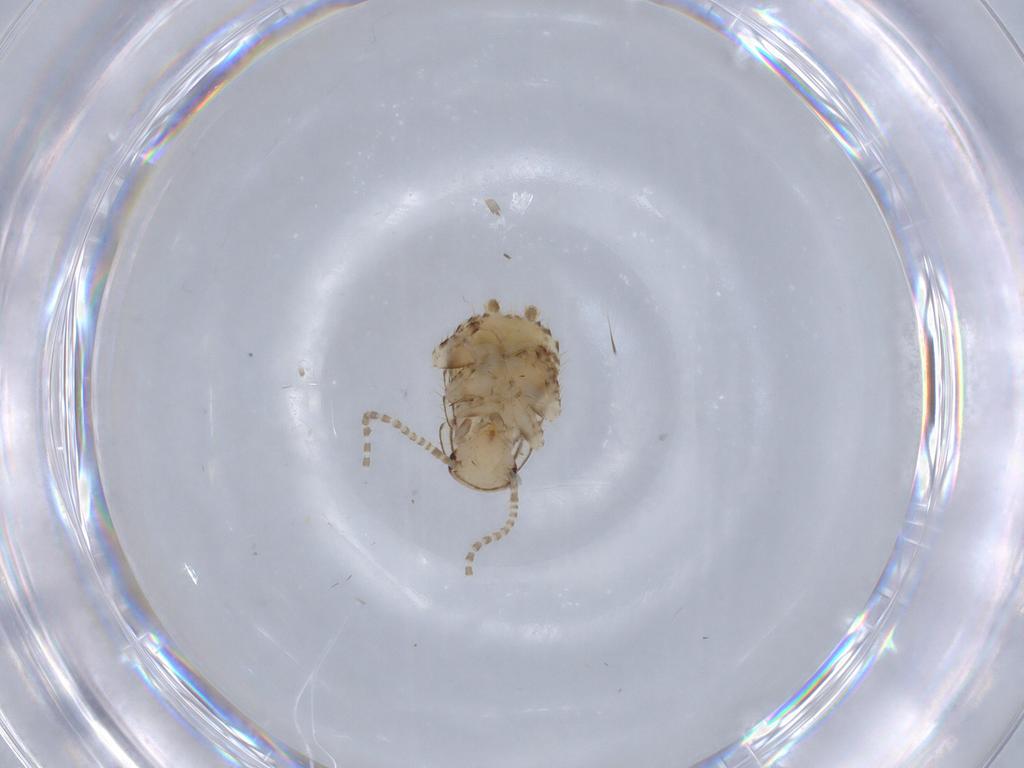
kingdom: Animalia
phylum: Arthropoda
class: Insecta
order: Blattodea
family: Ectobiidae
